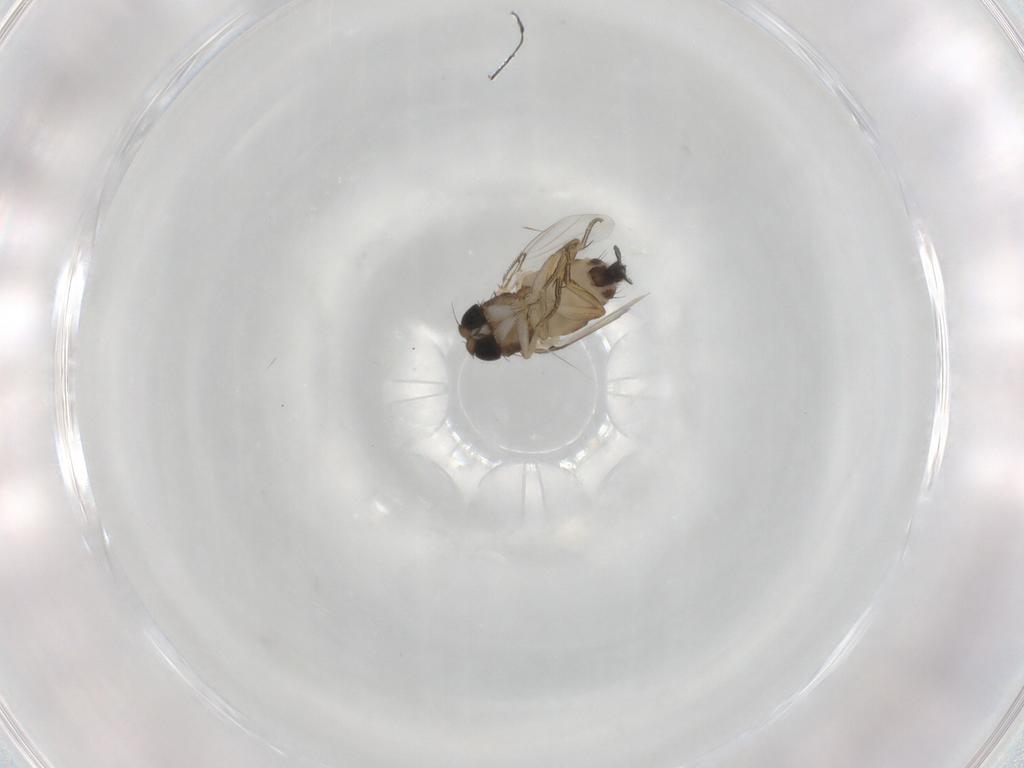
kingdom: Animalia
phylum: Arthropoda
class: Insecta
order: Diptera
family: Phoridae
